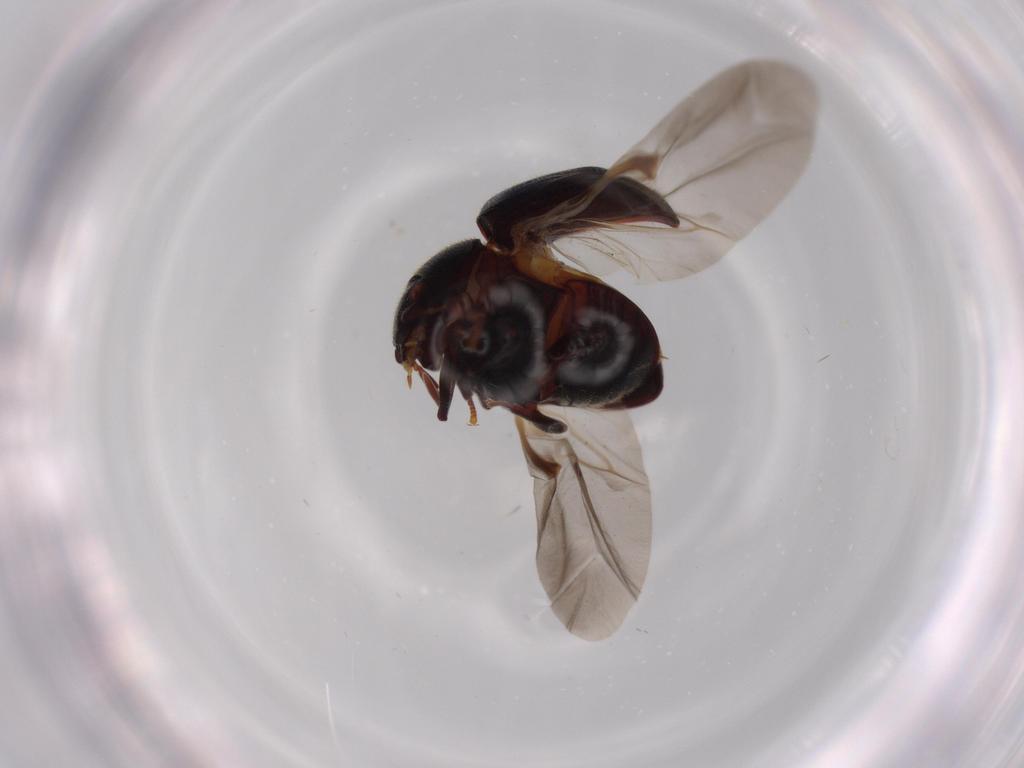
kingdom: Animalia
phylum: Arthropoda
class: Insecta
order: Coleoptera
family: Ptinidae
